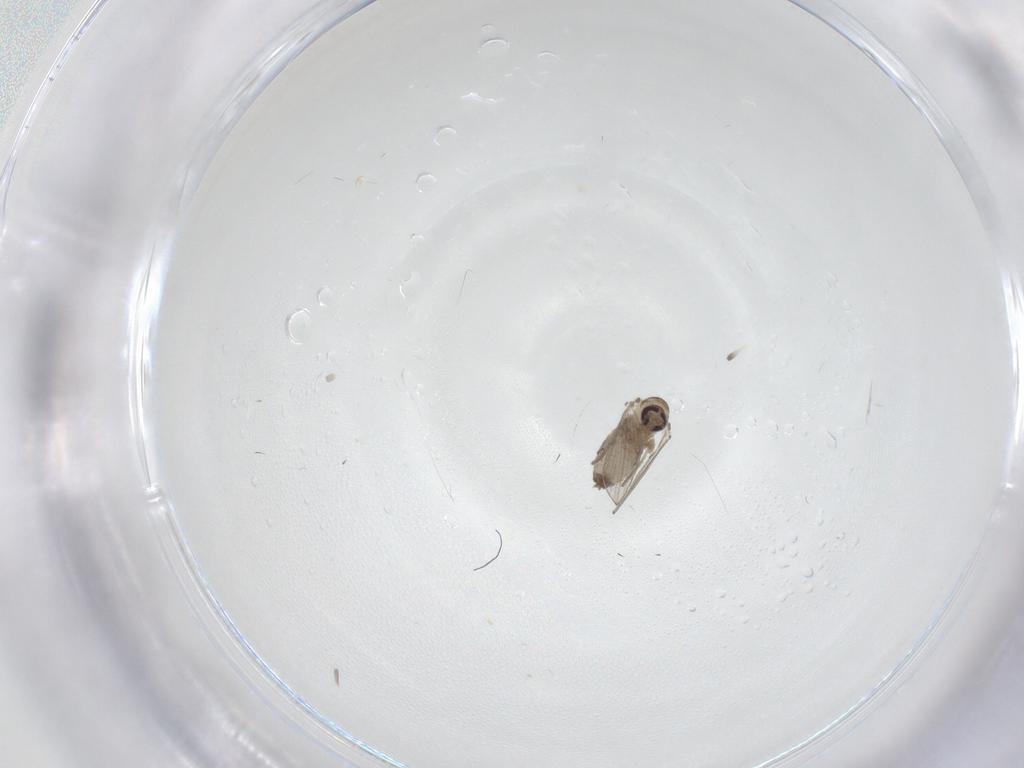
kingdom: Animalia
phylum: Arthropoda
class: Insecta
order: Diptera
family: Psychodidae
